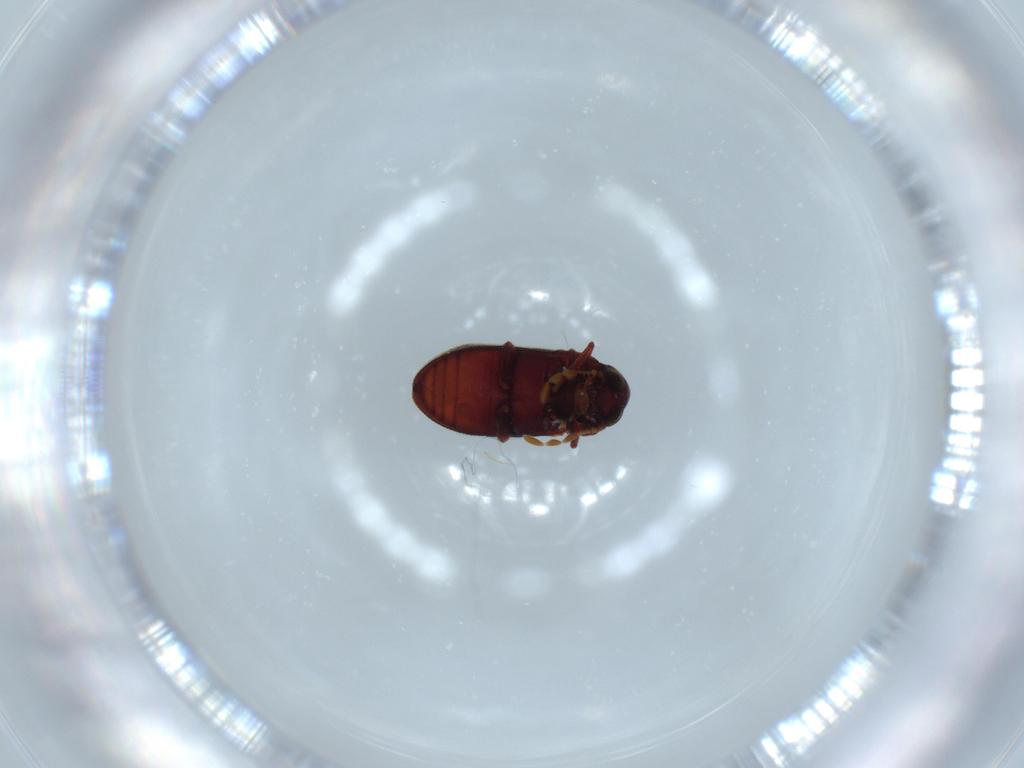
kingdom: Animalia
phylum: Arthropoda
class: Insecta
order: Coleoptera
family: Anobiidae
